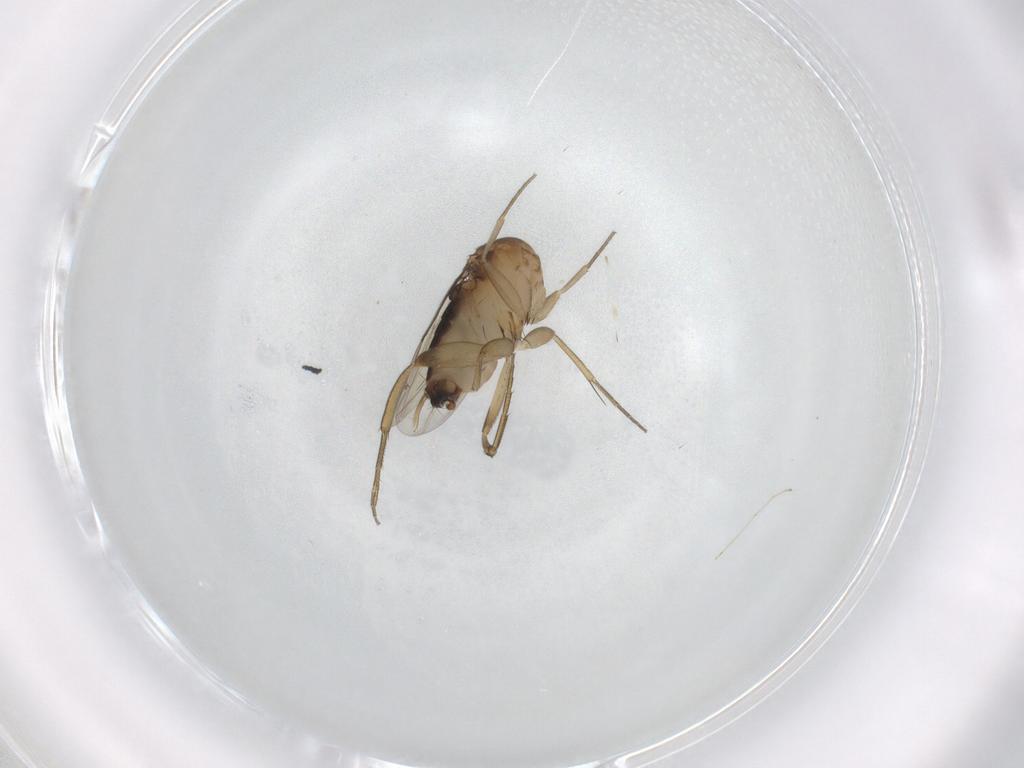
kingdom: Animalia
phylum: Arthropoda
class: Insecta
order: Diptera
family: Phoridae
